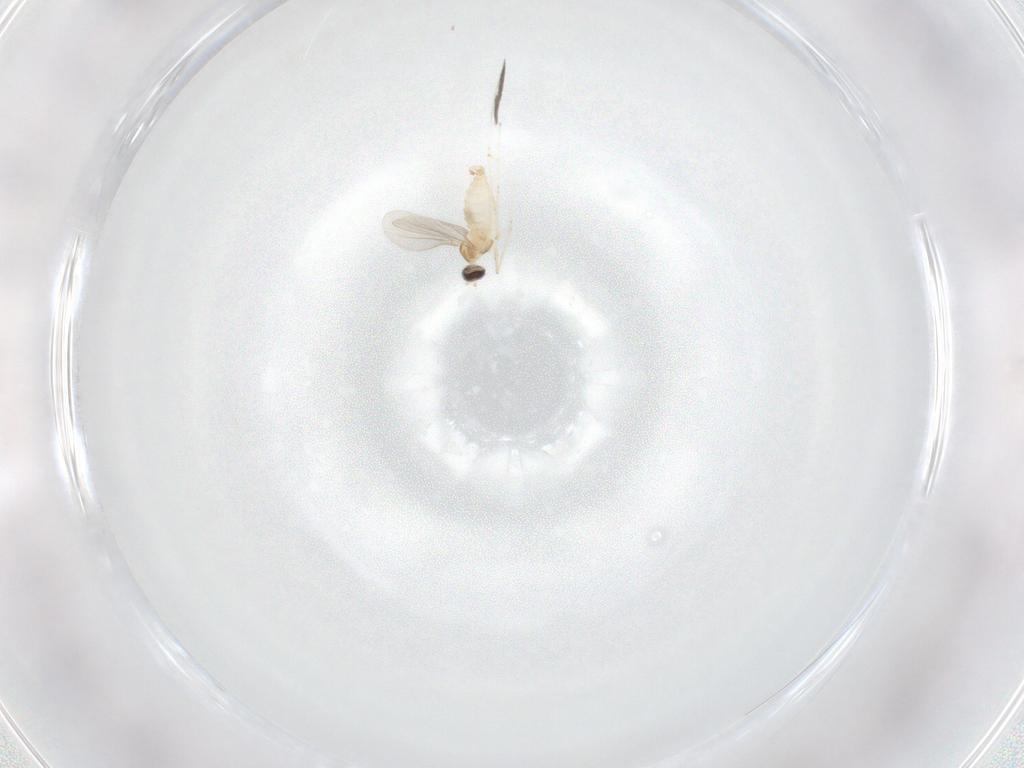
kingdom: Animalia
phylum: Arthropoda
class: Insecta
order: Diptera
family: Cecidomyiidae
